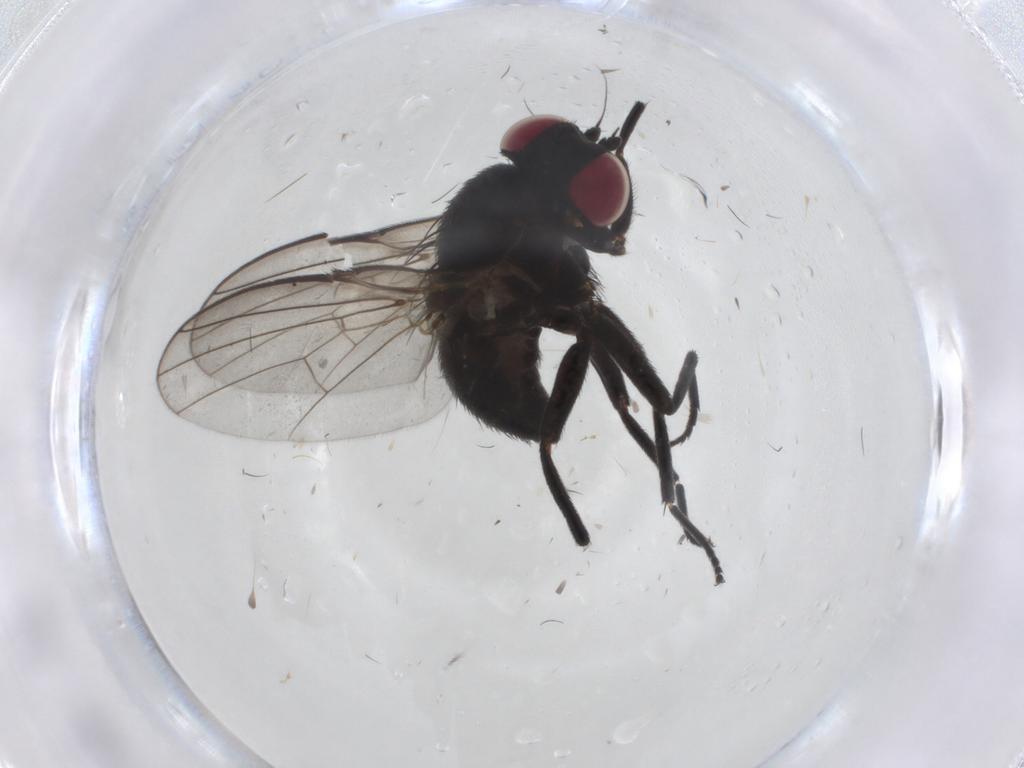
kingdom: Animalia
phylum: Arthropoda
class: Insecta
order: Diptera
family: Agromyzidae
